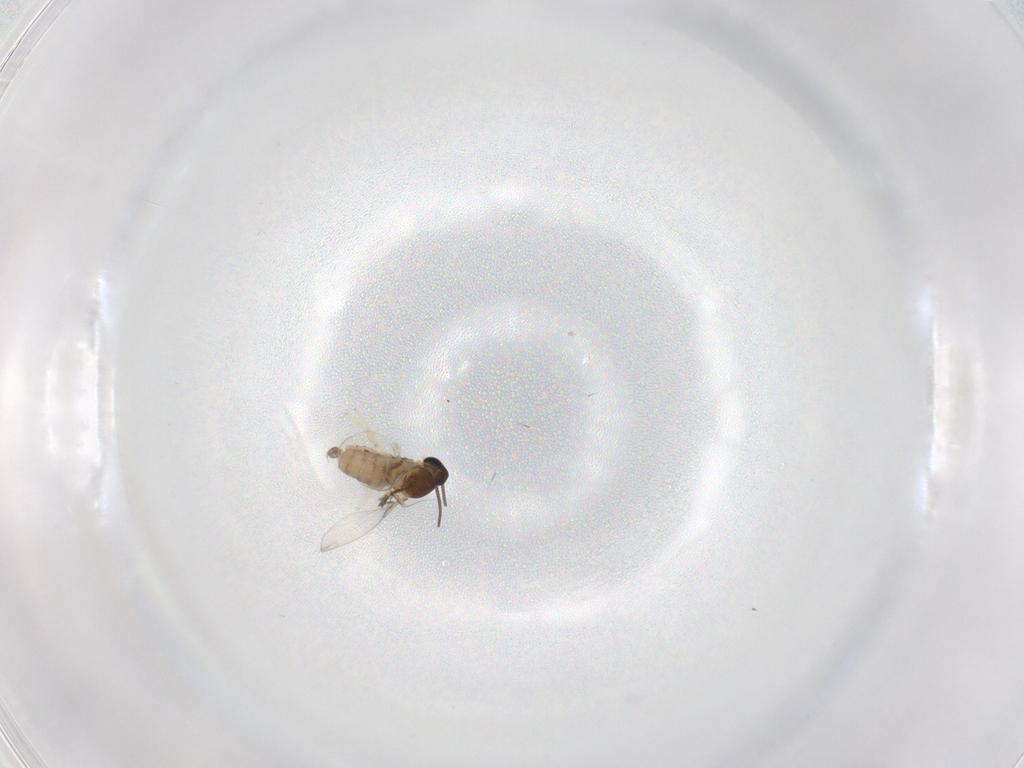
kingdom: Animalia
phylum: Arthropoda
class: Insecta
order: Diptera
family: Cecidomyiidae
